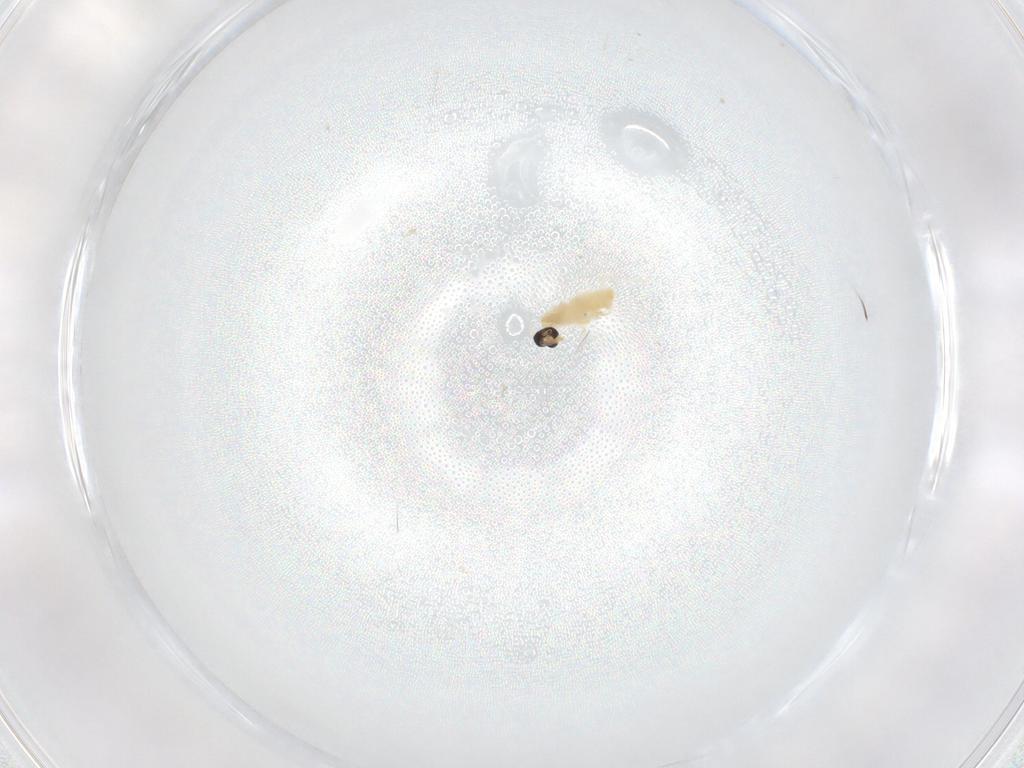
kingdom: Animalia
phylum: Arthropoda
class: Insecta
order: Diptera
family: Cecidomyiidae
